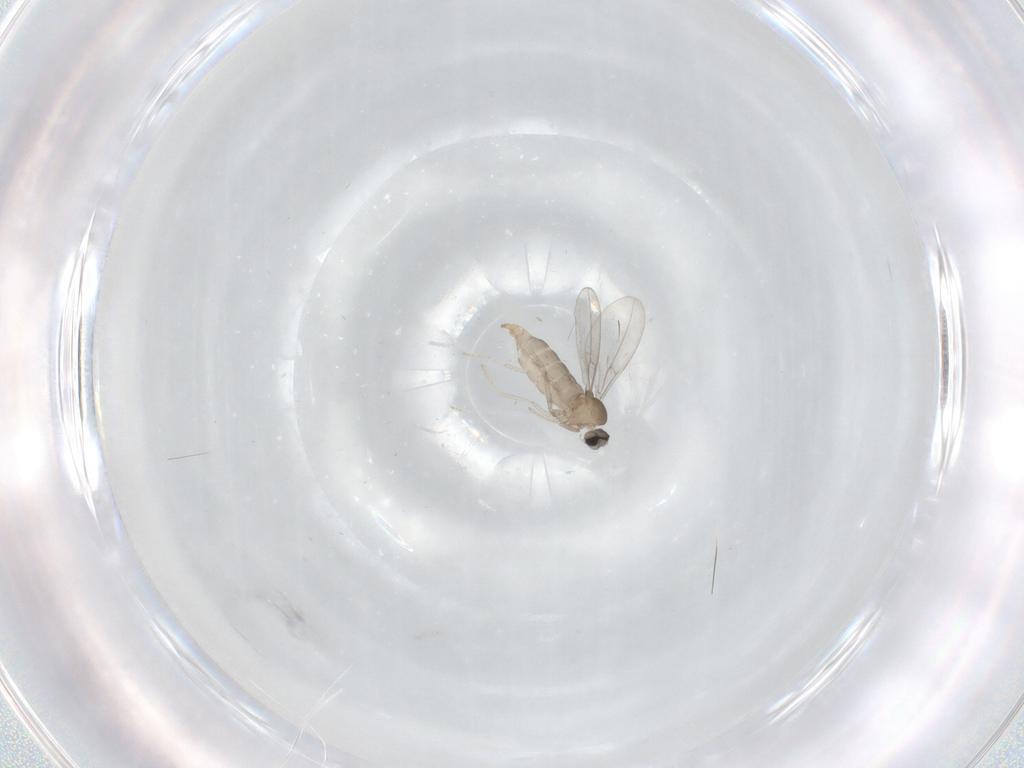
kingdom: Animalia
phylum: Arthropoda
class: Insecta
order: Diptera
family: Cecidomyiidae
